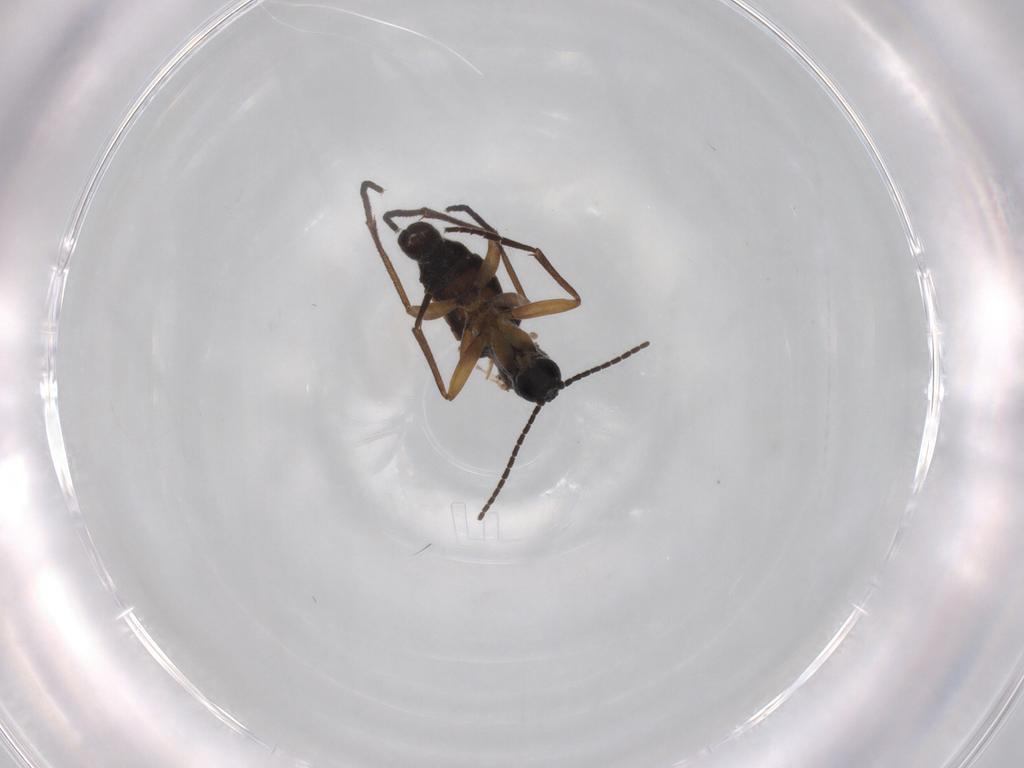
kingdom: Animalia
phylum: Arthropoda
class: Insecta
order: Diptera
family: Sciaridae
